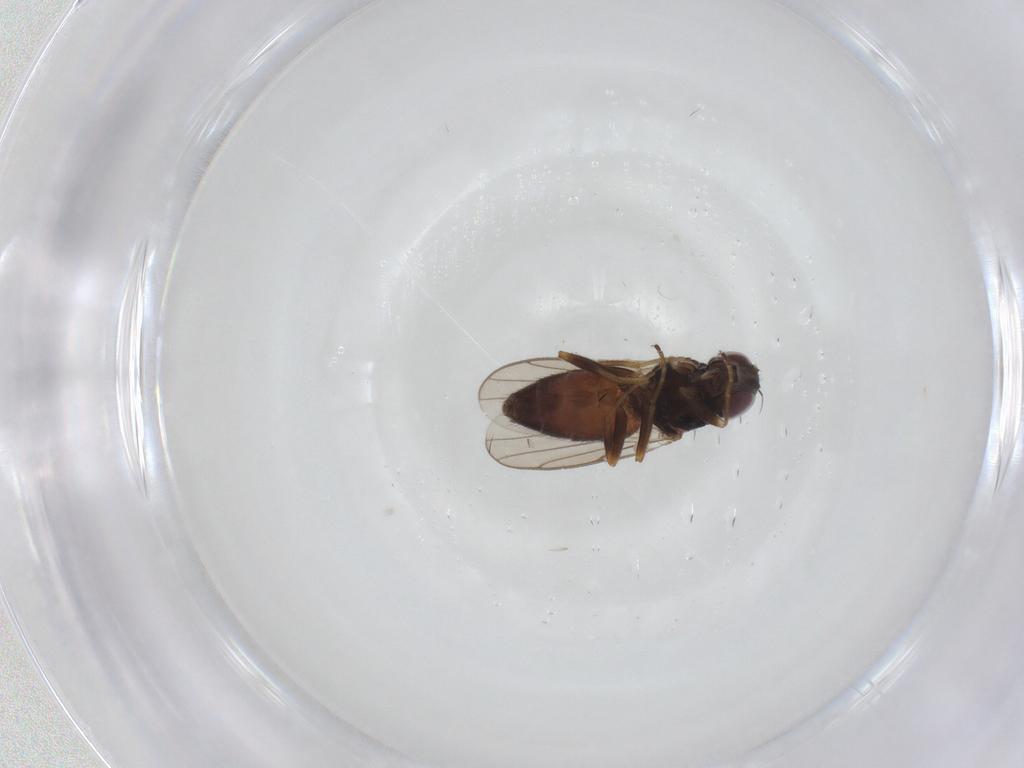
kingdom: Animalia
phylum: Arthropoda
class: Insecta
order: Diptera
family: Chloropidae
